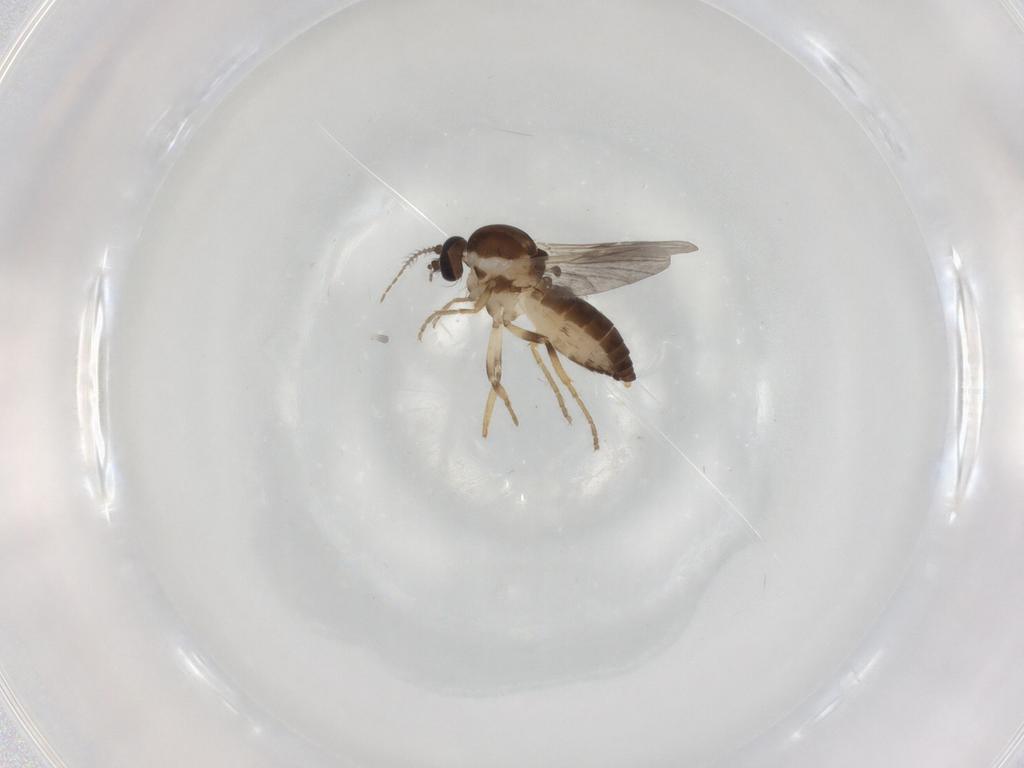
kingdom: Animalia
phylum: Arthropoda
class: Insecta
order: Diptera
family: Ceratopogonidae
